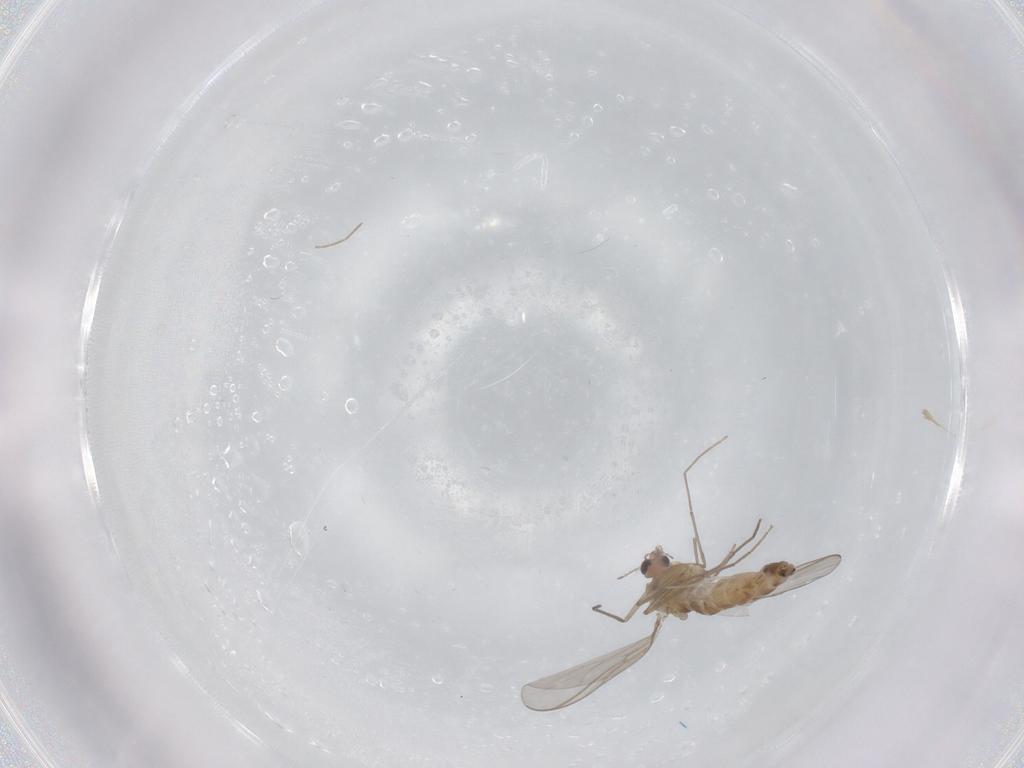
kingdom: Animalia
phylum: Arthropoda
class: Insecta
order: Diptera
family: Chironomidae
